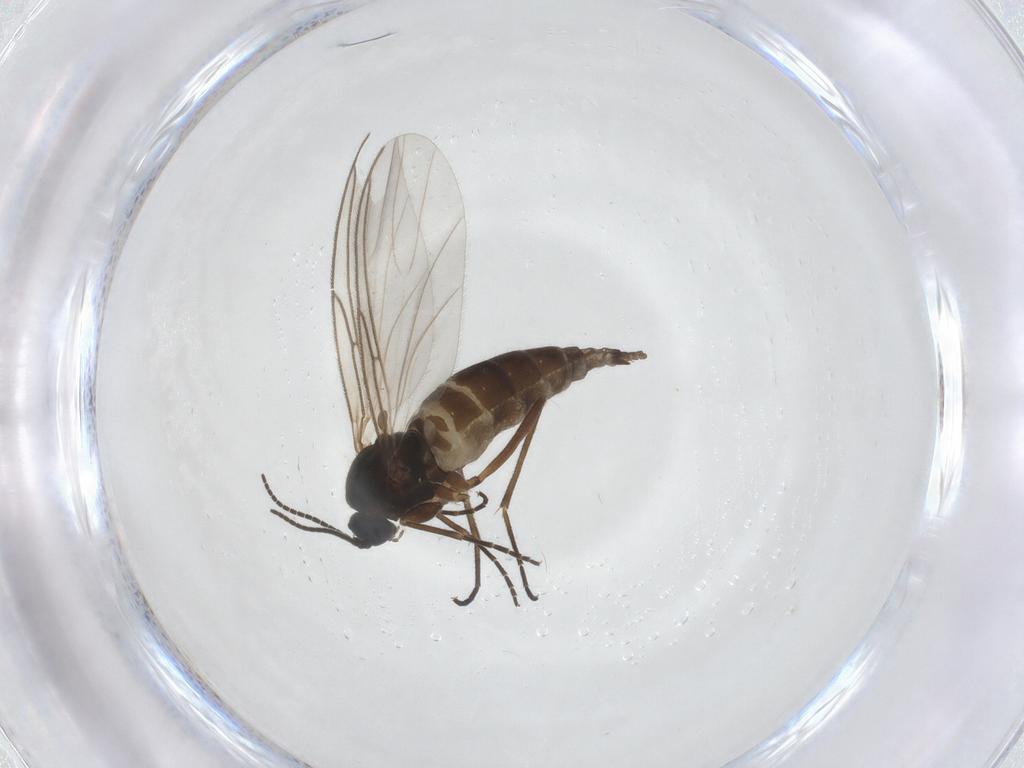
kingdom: Animalia
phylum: Arthropoda
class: Insecta
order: Diptera
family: Sciaridae
